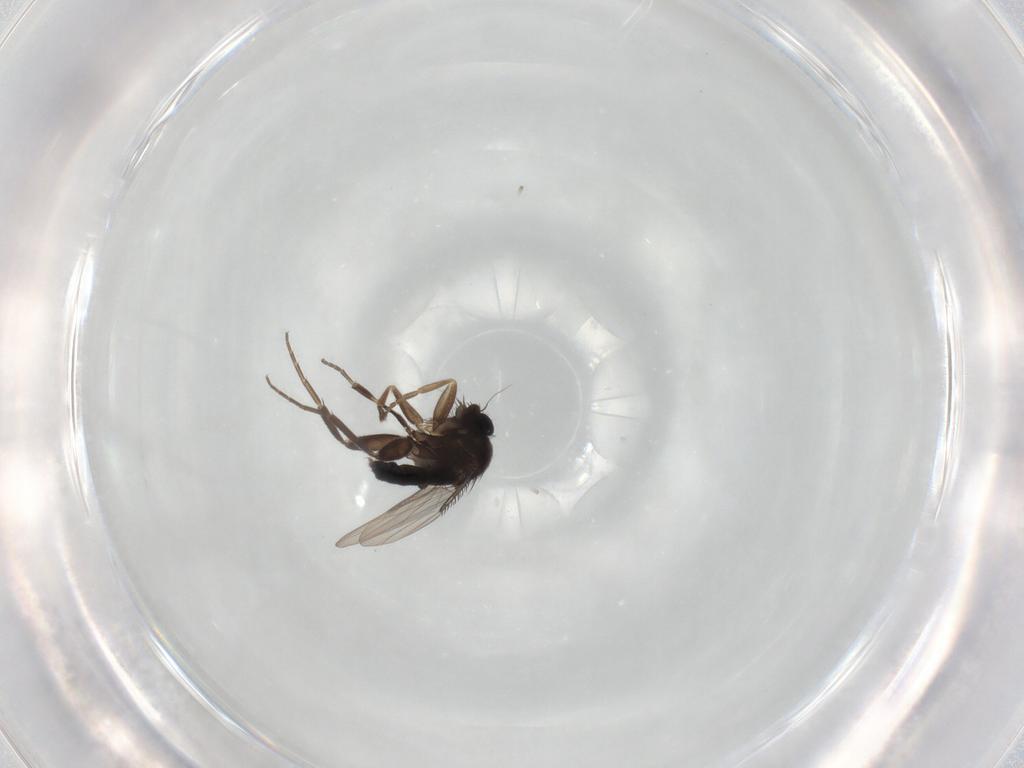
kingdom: Animalia
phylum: Arthropoda
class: Insecta
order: Diptera
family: Phoridae
